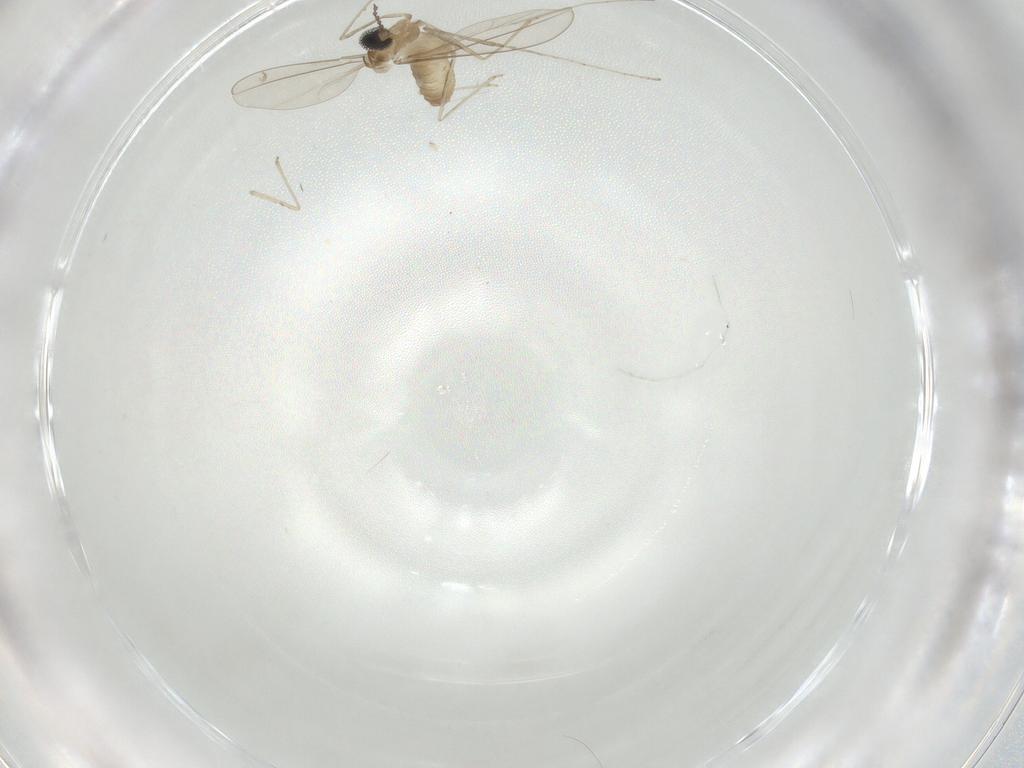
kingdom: Animalia
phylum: Arthropoda
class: Insecta
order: Diptera
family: Cecidomyiidae
